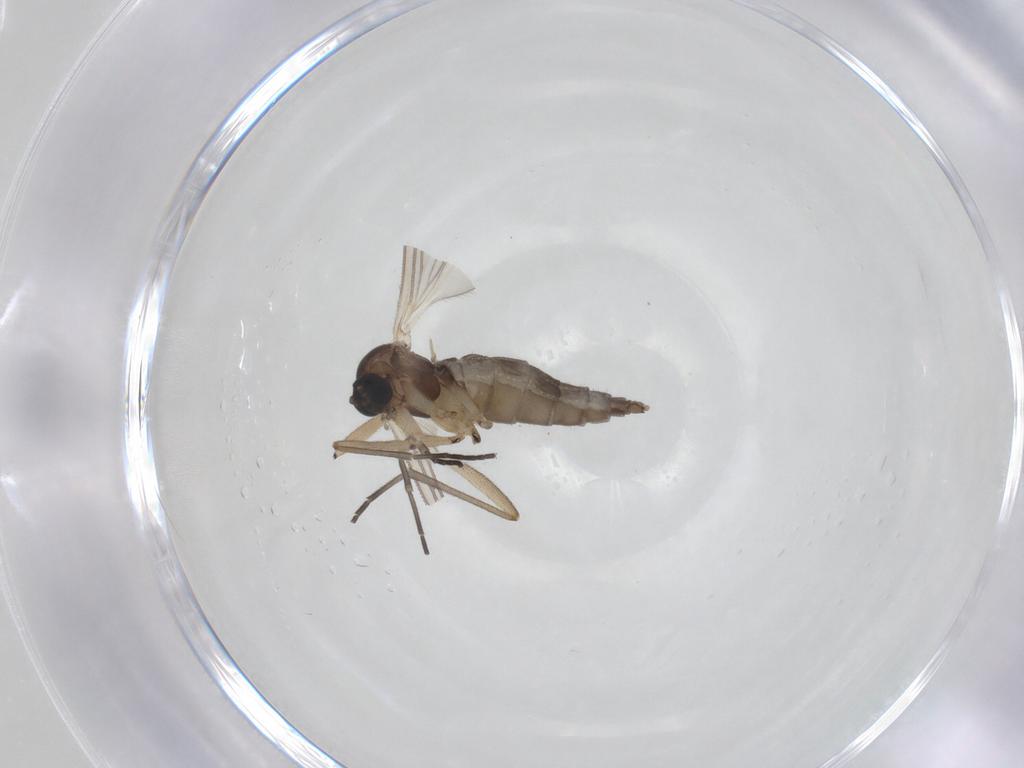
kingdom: Animalia
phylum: Arthropoda
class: Insecta
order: Diptera
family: Sciaridae
